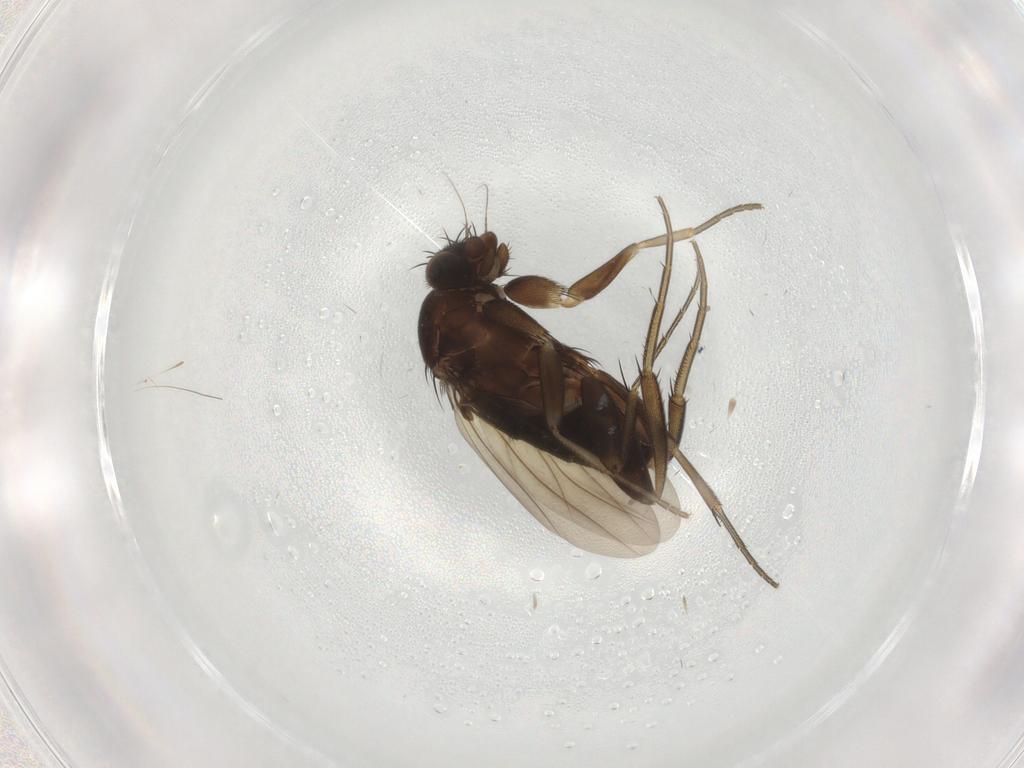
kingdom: Animalia
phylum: Arthropoda
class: Insecta
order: Diptera
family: Phoridae
